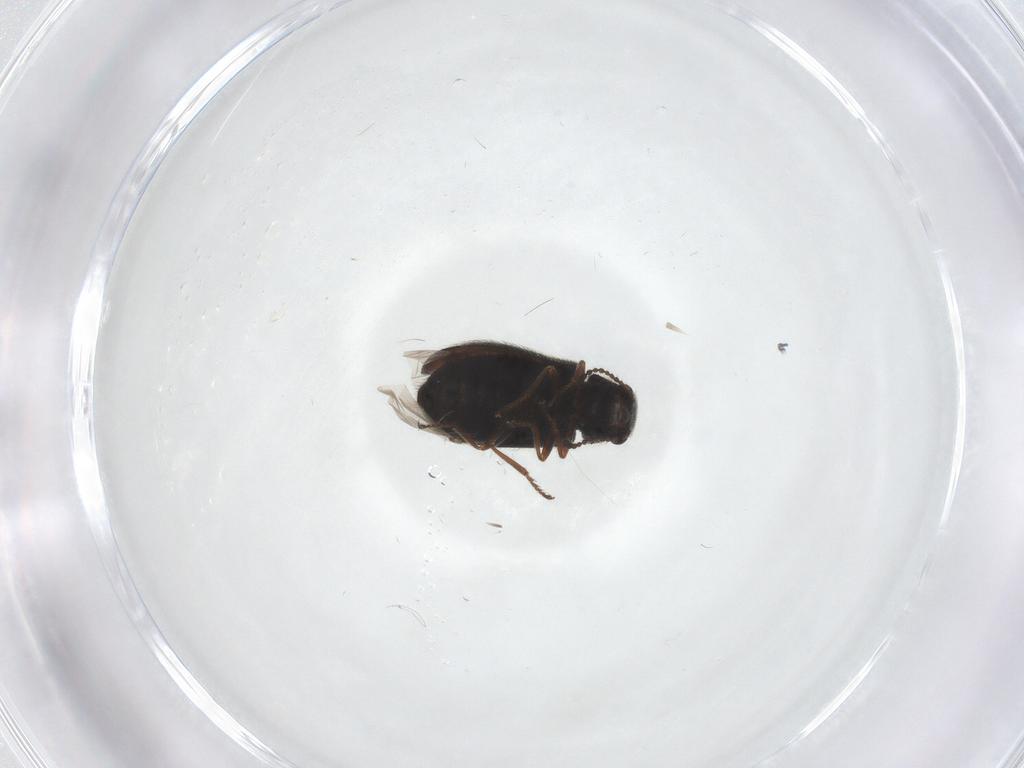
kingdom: Animalia
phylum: Arthropoda
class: Insecta
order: Coleoptera
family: Melyridae
